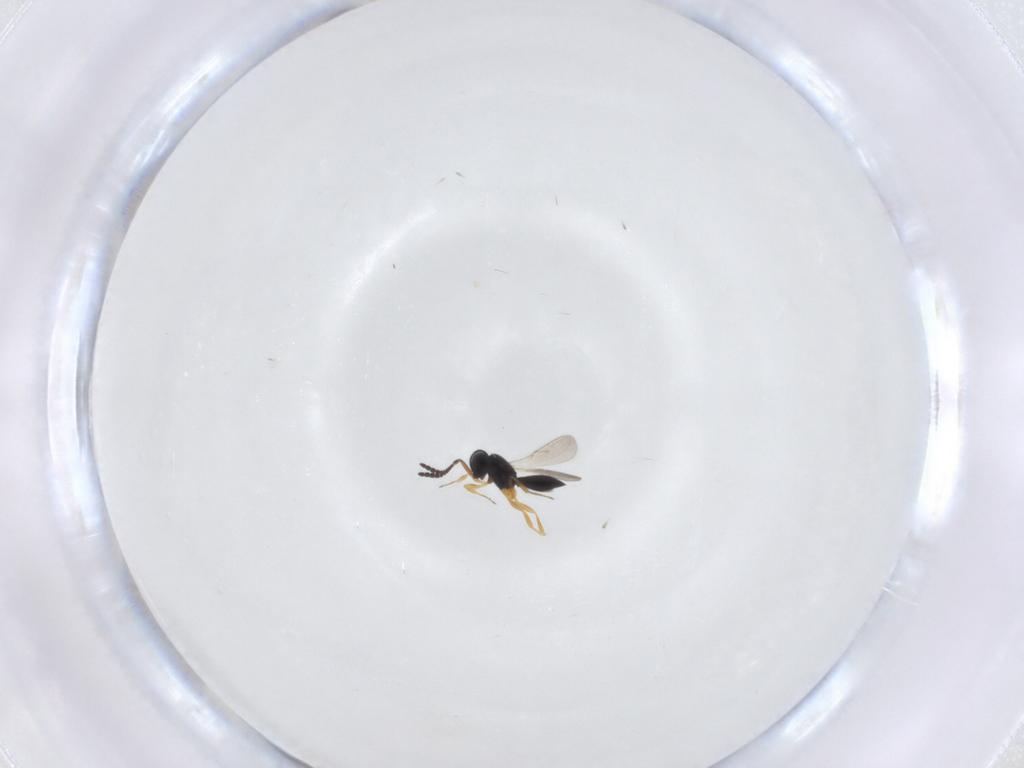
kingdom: Animalia
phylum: Arthropoda
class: Insecta
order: Hymenoptera
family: Scelionidae
